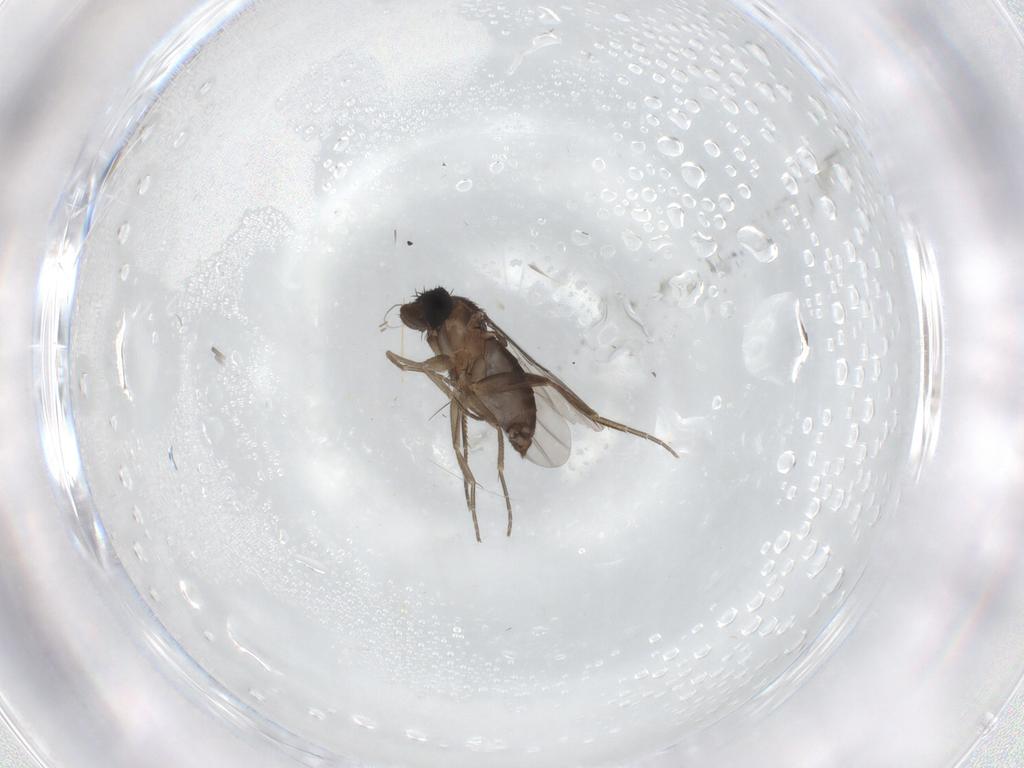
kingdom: Animalia
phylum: Arthropoda
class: Insecta
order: Diptera
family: Phoridae
